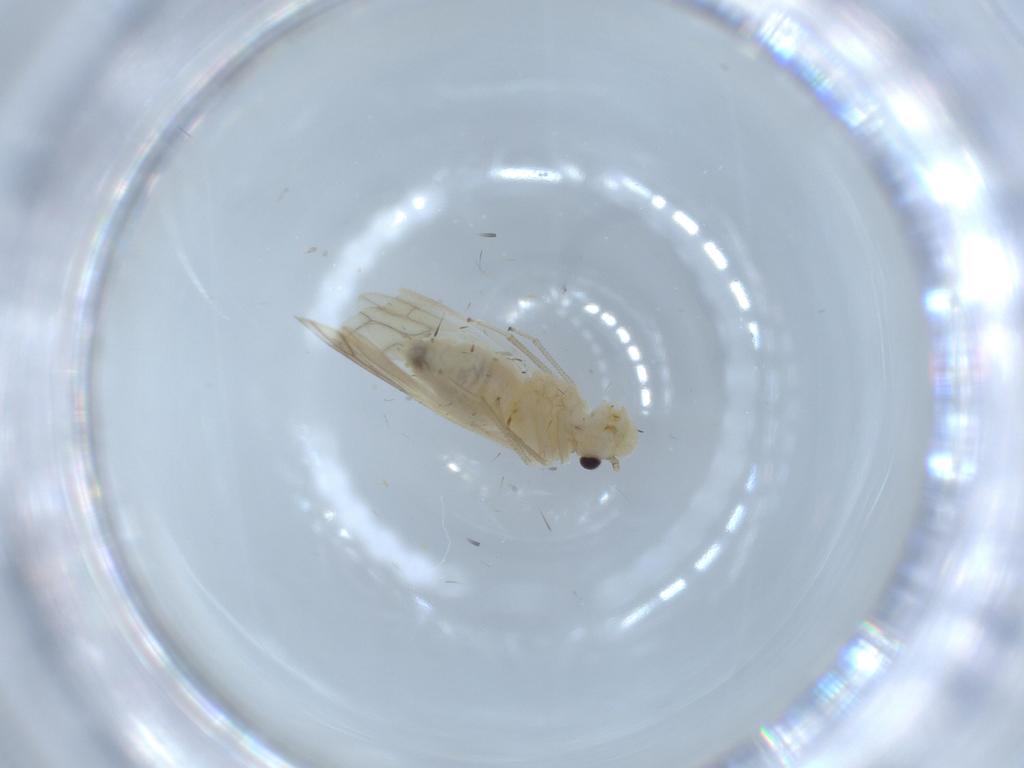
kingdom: Animalia
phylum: Arthropoda
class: Insecta
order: Psocodea
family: Caeciliusidae
